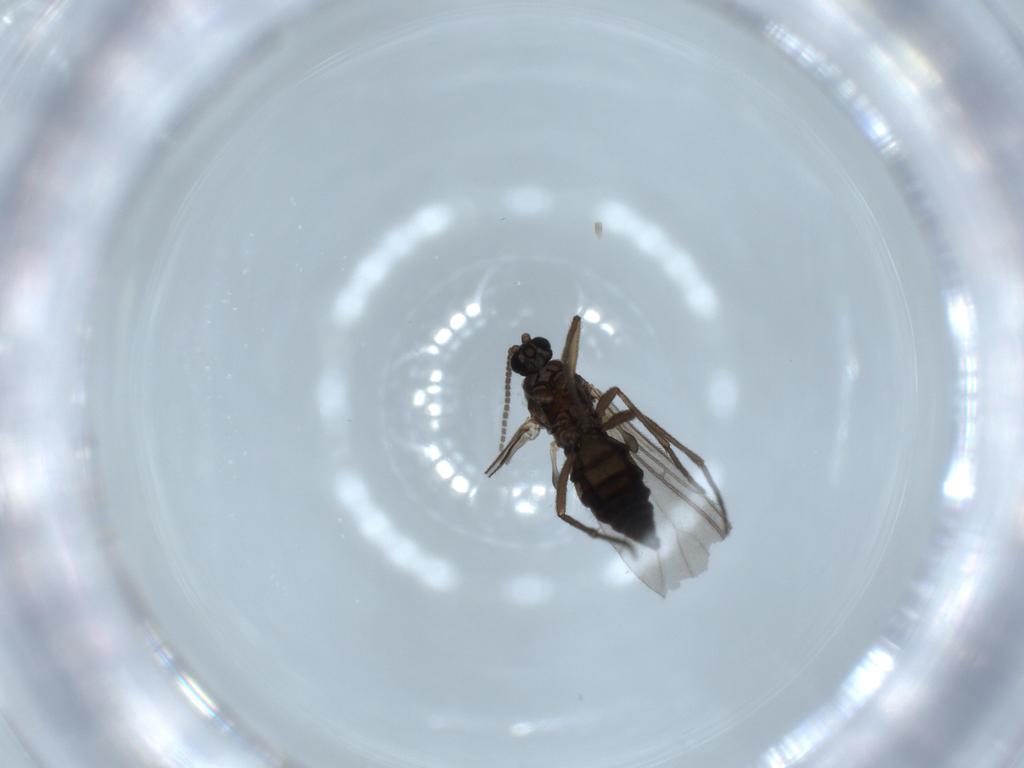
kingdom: Animalia
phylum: Arthropoda
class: Insecta
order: Diptera
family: Sciaridae
